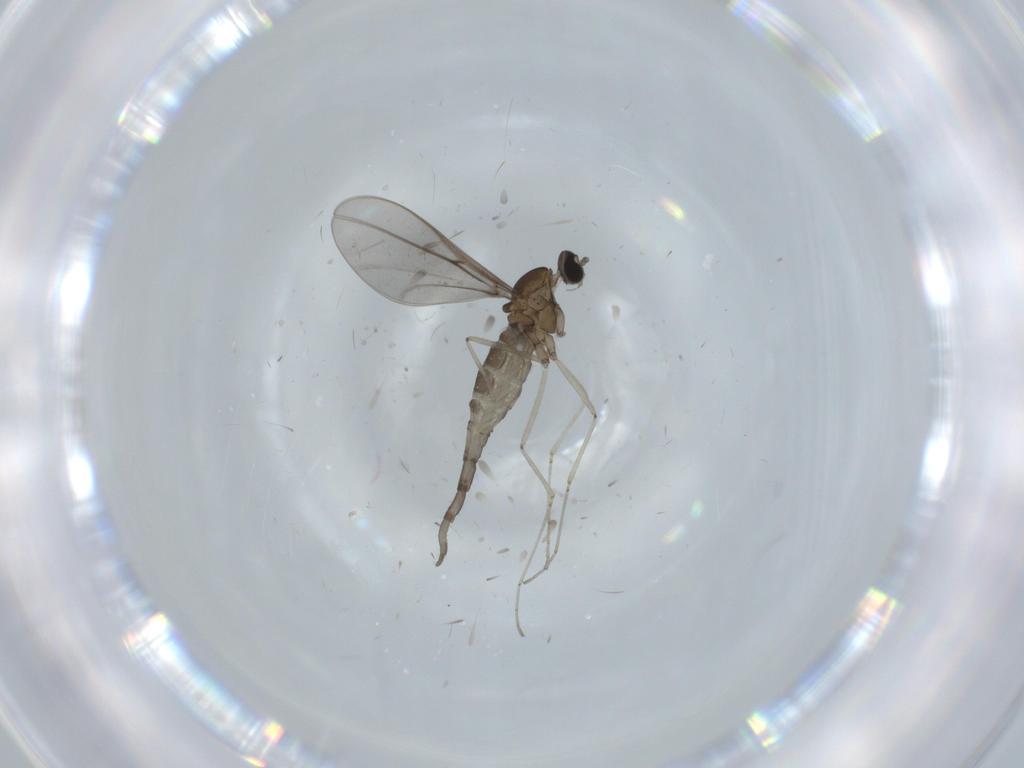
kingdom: Animalia
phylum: Arthropoda
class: Insecta
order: Diptera
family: Cecidomyiidae
